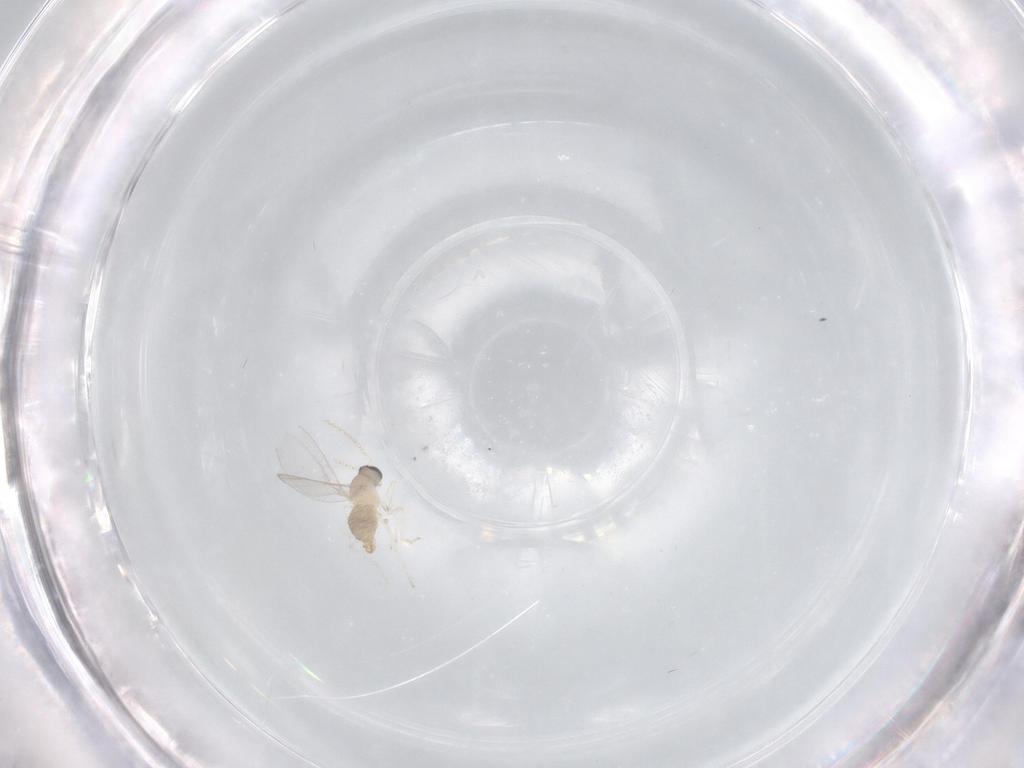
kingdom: Animalia
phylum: Arthropoda
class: Insecta
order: Diptera
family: Cecidomyiidae
